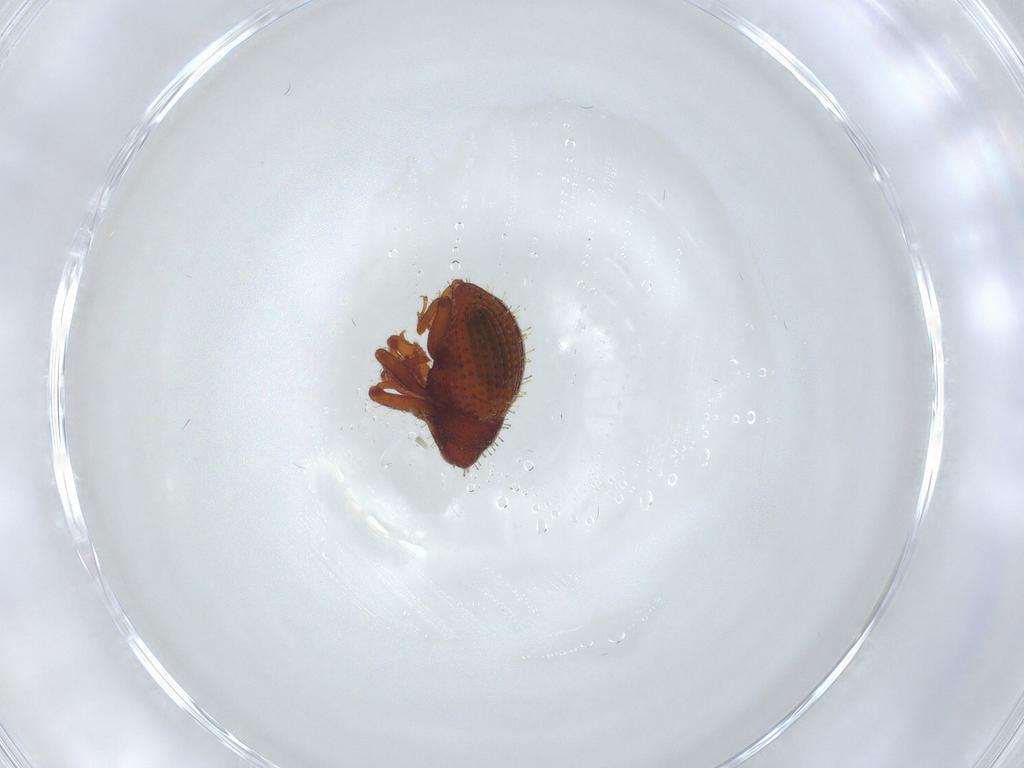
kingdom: Animalia
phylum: Arthropoda
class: Insecta
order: Coleoptera
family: Curculionidae
